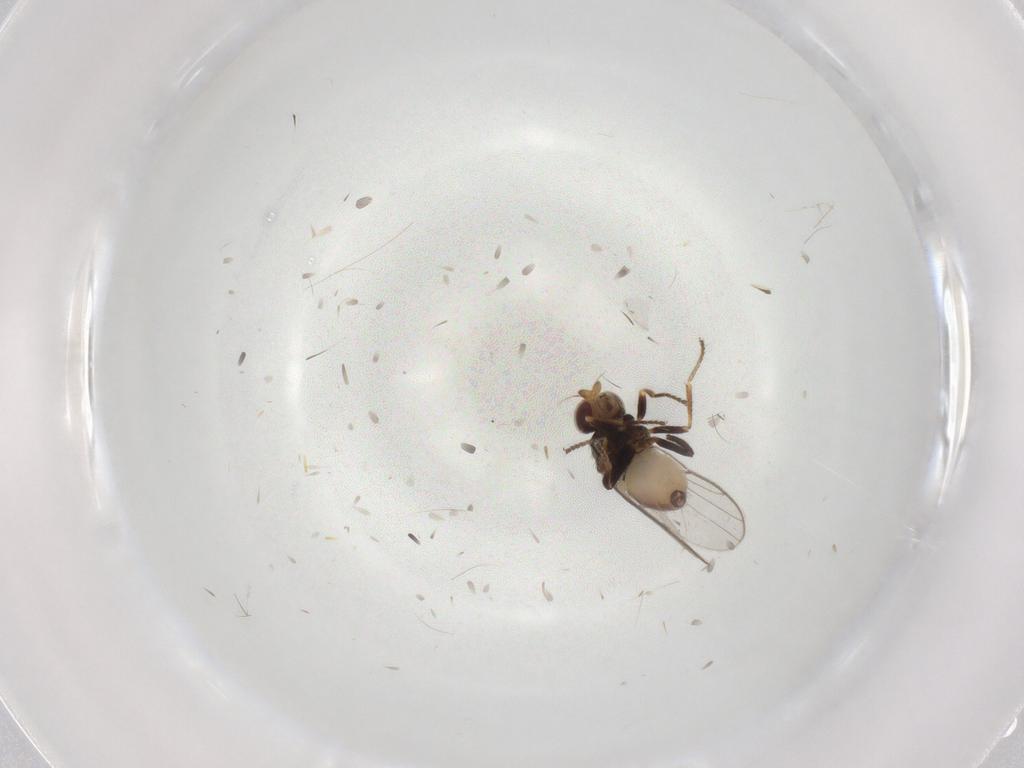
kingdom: Animalia
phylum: Arthropoda
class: Insecta
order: Diptera
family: Chloropidae
